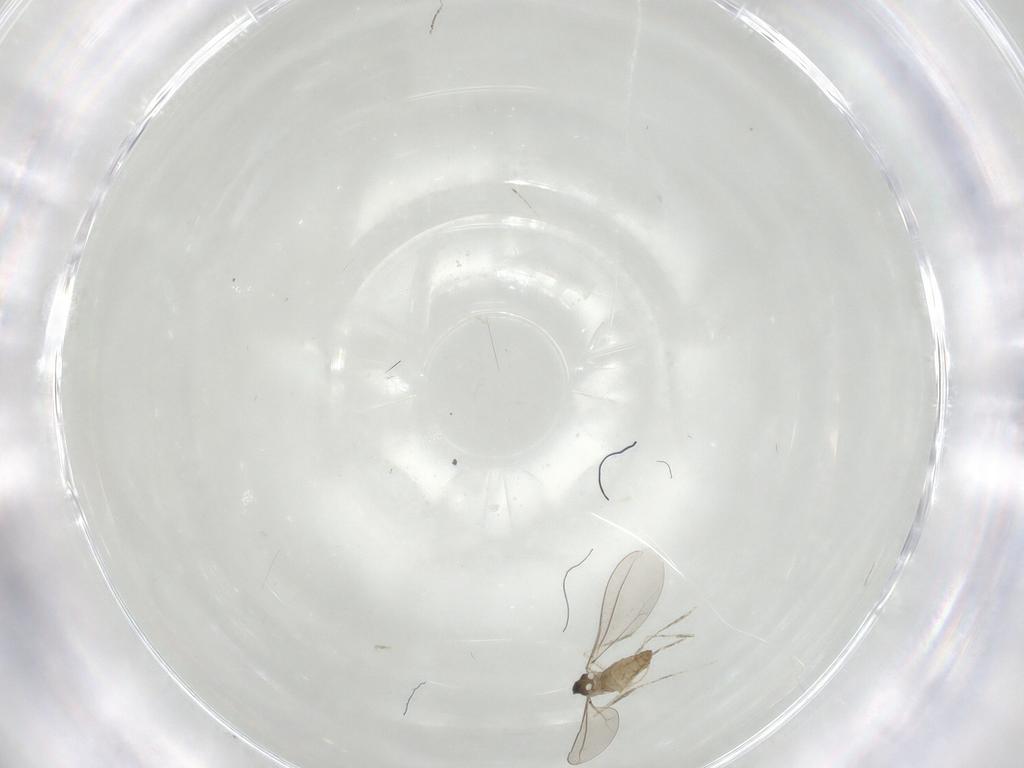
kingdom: Animalia
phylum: Arthropoda
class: Insecta
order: Diptera
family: Cecidomyiidae
